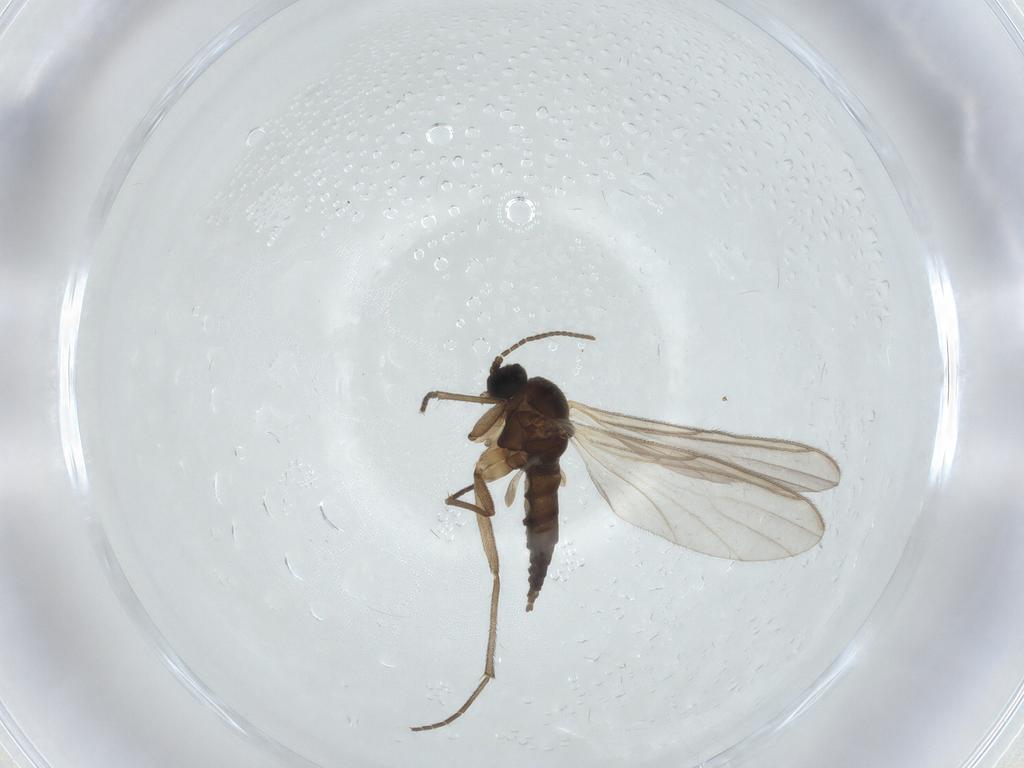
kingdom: Animalia
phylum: Arthropoda
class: Insecta
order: Diptera
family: Sciaridae
